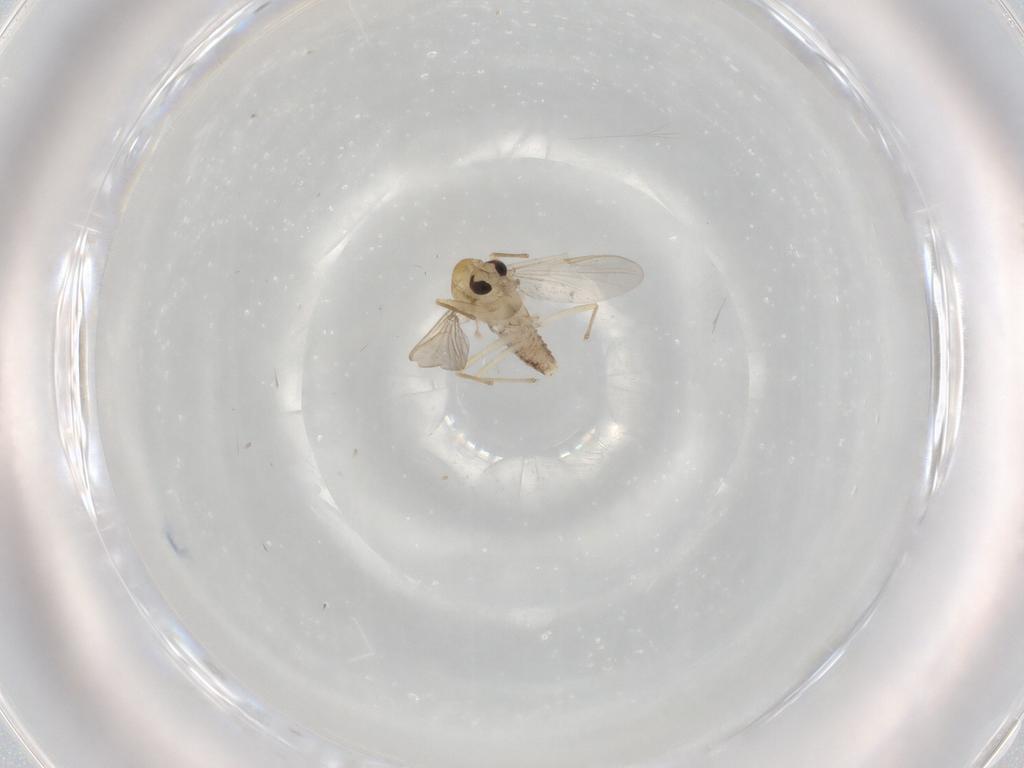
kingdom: Animalia
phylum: Arthropoda
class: Insecta
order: Diptera
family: Chironomidae
